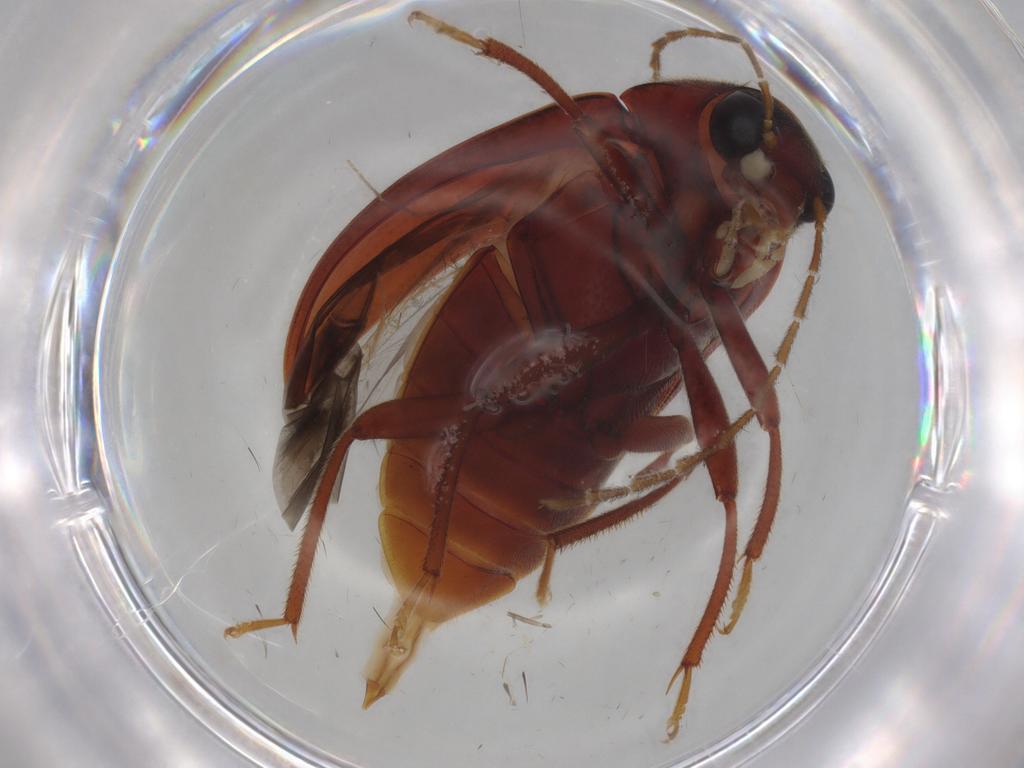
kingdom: Animalia
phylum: Arthropoda
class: Insecta
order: Coleoptera
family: Ptilodactylidae
